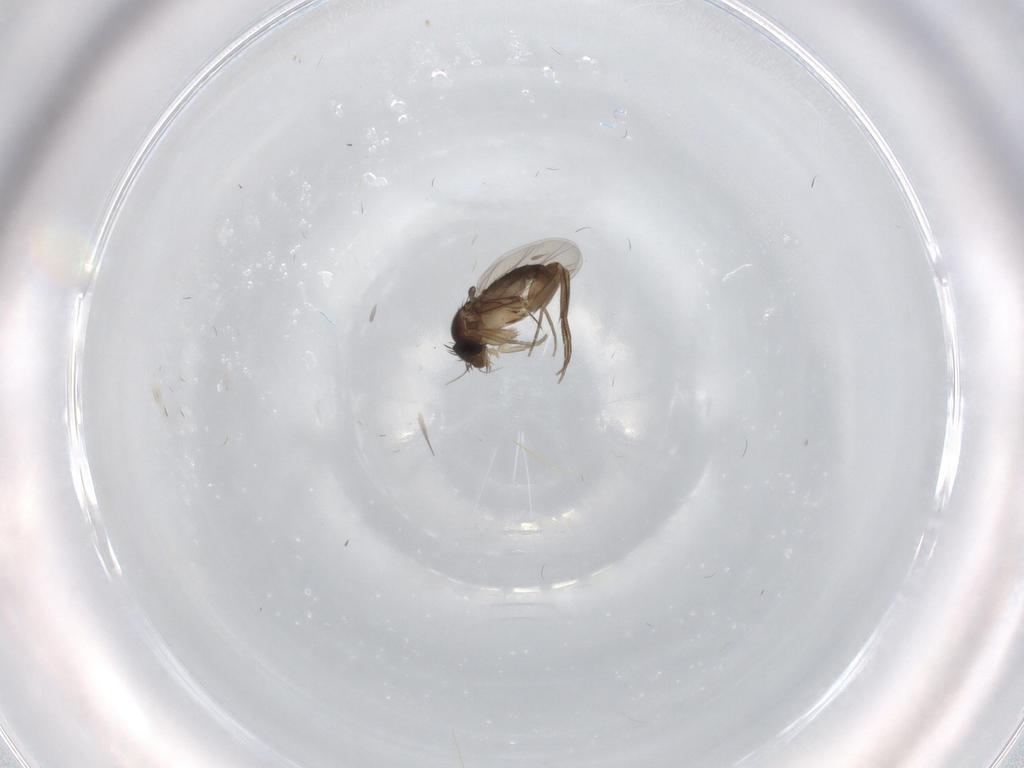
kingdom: Animalia
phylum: Arthropoda
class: Insecta
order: Diptera
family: Phoridae
